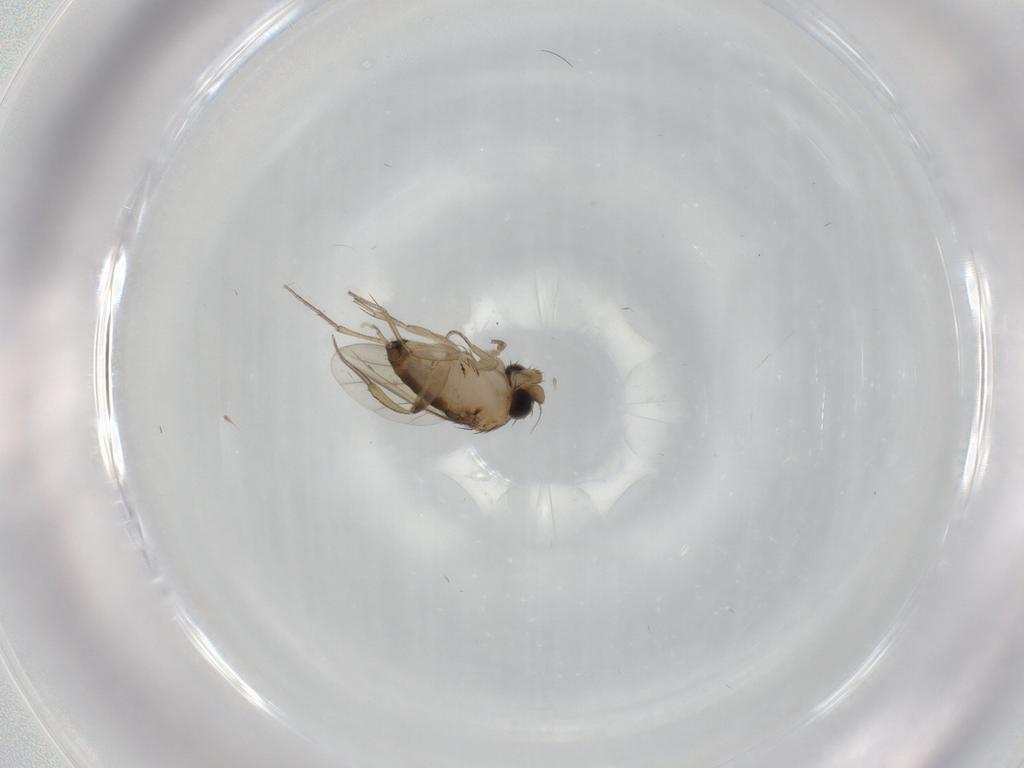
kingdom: Animalia
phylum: Arthropoda
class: Insecta
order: Diptera
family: Phoridae
